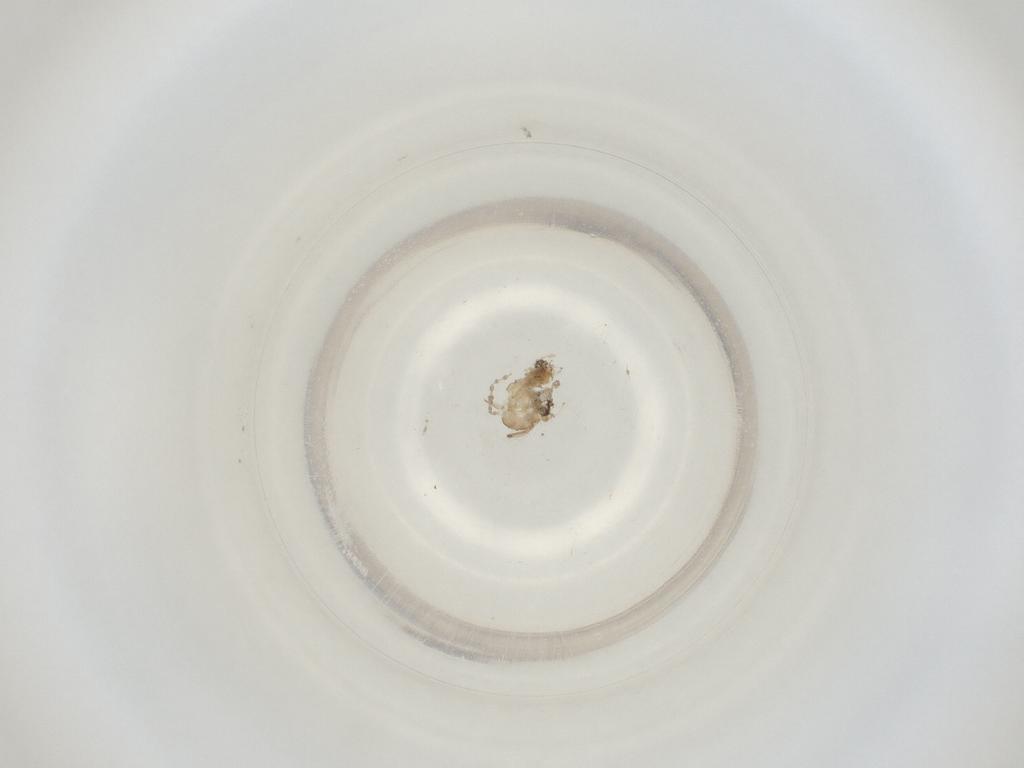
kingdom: Animalia
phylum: Arthropoda
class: Insecta
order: Diptera
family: Cecidomyiidae
